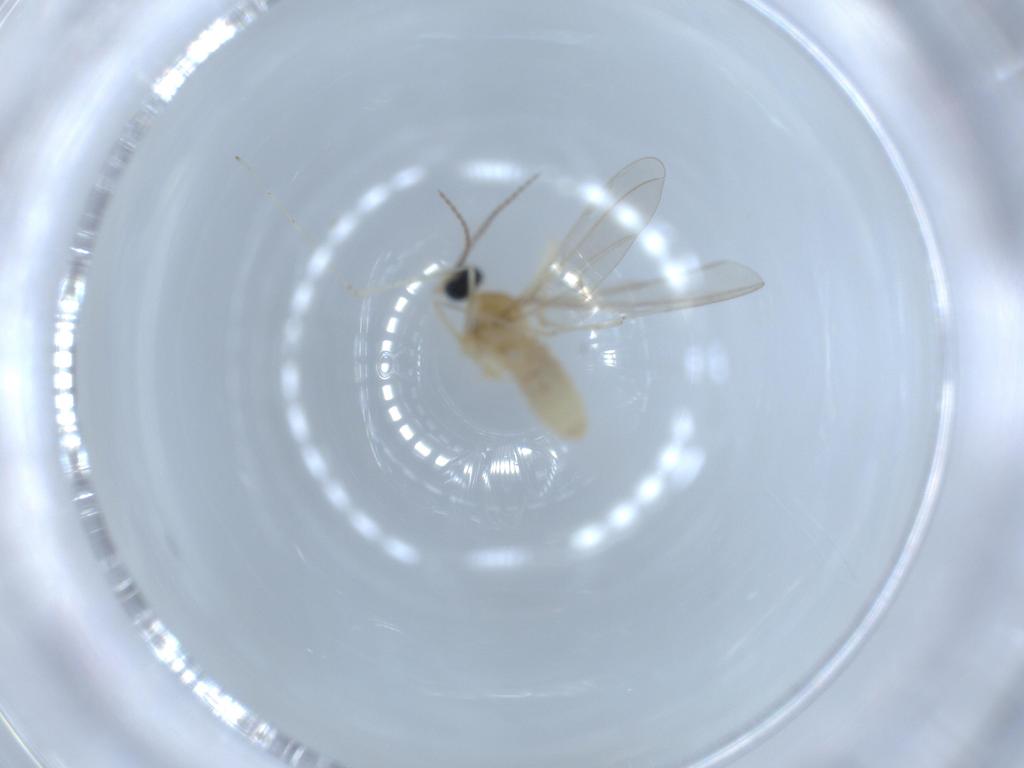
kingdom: Animalia
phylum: Arthropoda
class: Insecta
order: Diptera
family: Cecidomyiidae
